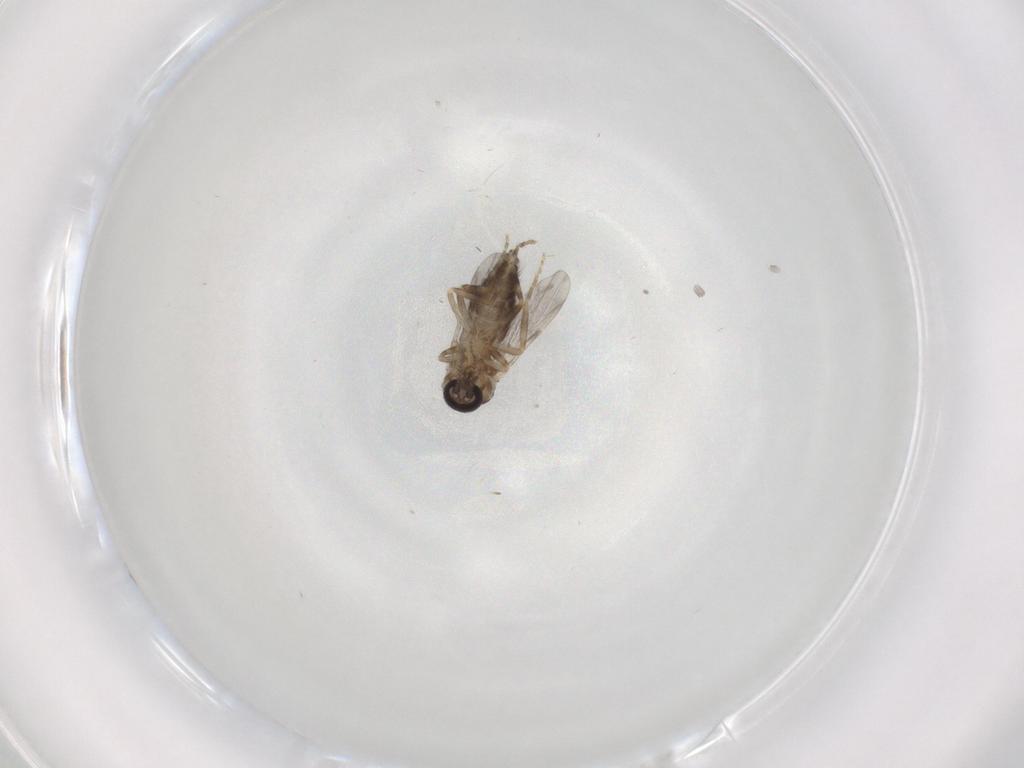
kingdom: Animalia
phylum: Arthropoda
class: Insecta
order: Diptera
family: Ceratopogonidae
